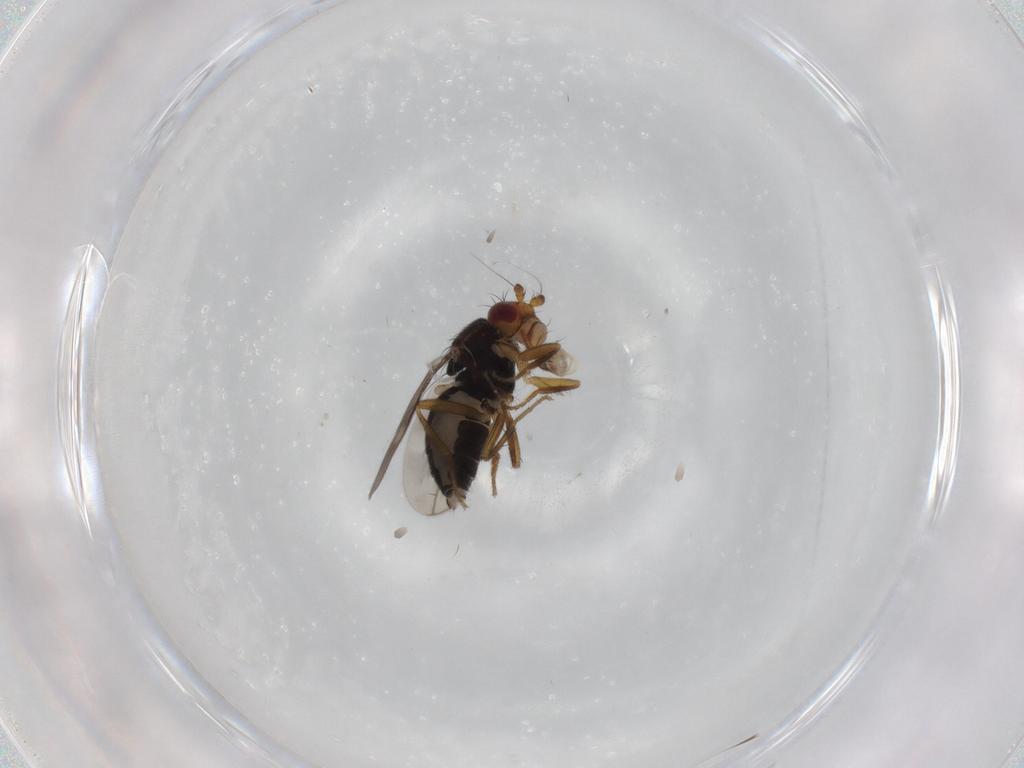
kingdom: Animalia
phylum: Arthropoda
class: Insecta
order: Diptera
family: Sphaeroceridae
